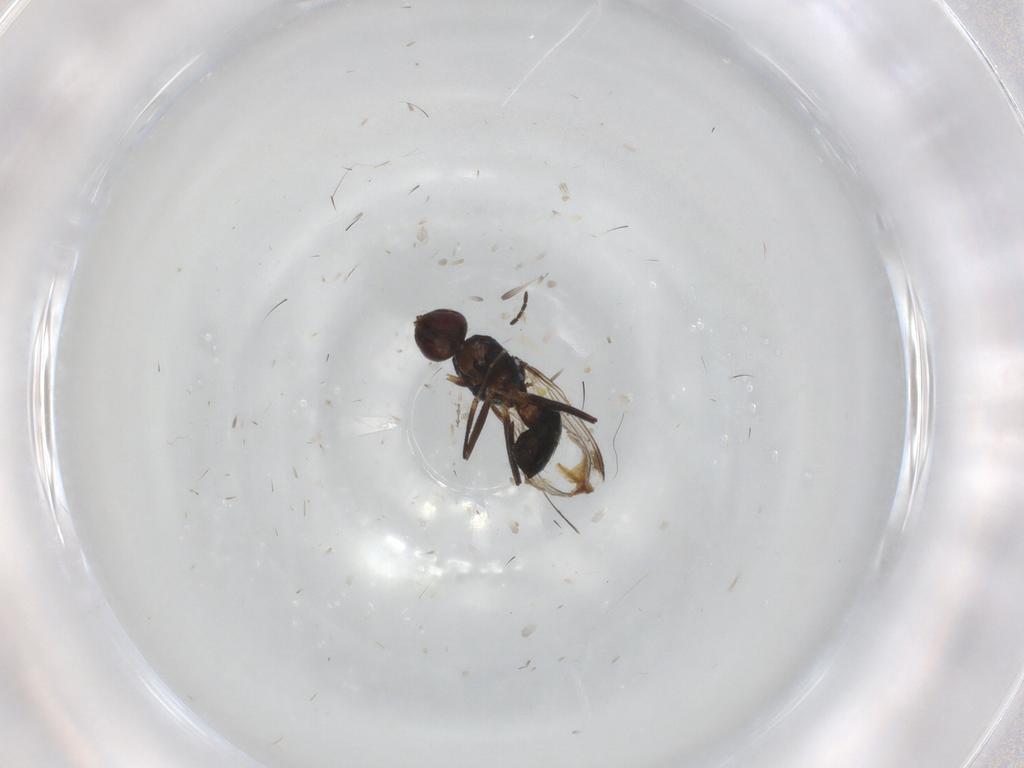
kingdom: Animalia
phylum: Arthropoda
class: Insecta
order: Diptera
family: Sepsidae
